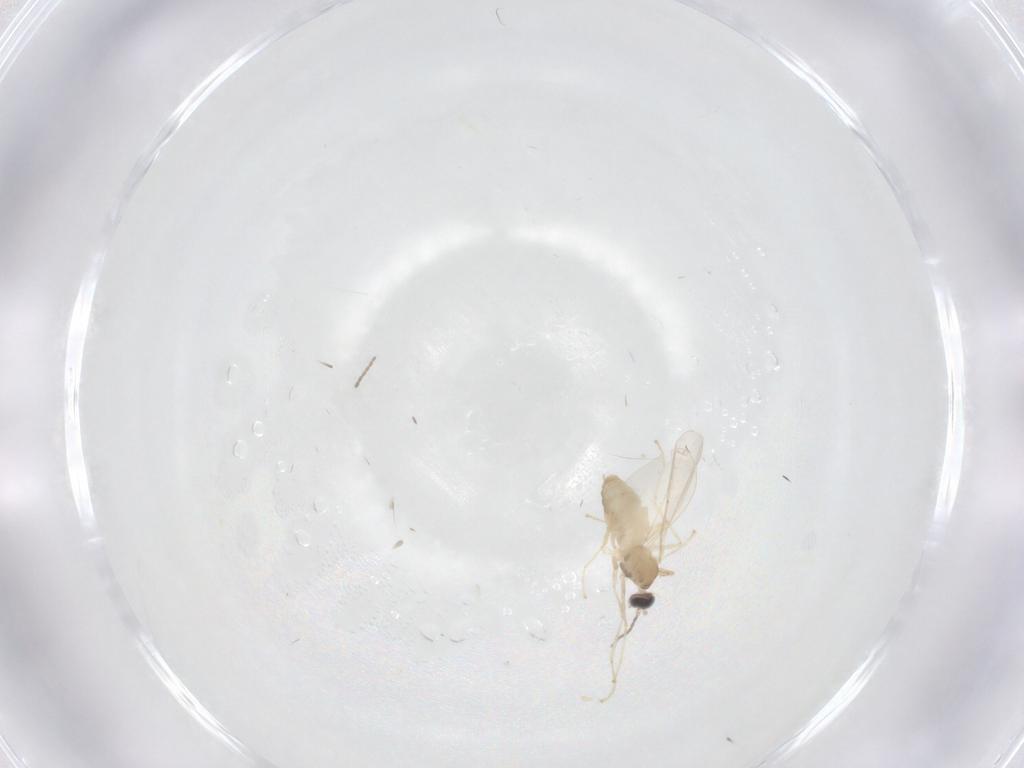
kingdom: Animalia
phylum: Arthropoda
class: Insecta
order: Diptera
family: Cecidomyiidae
